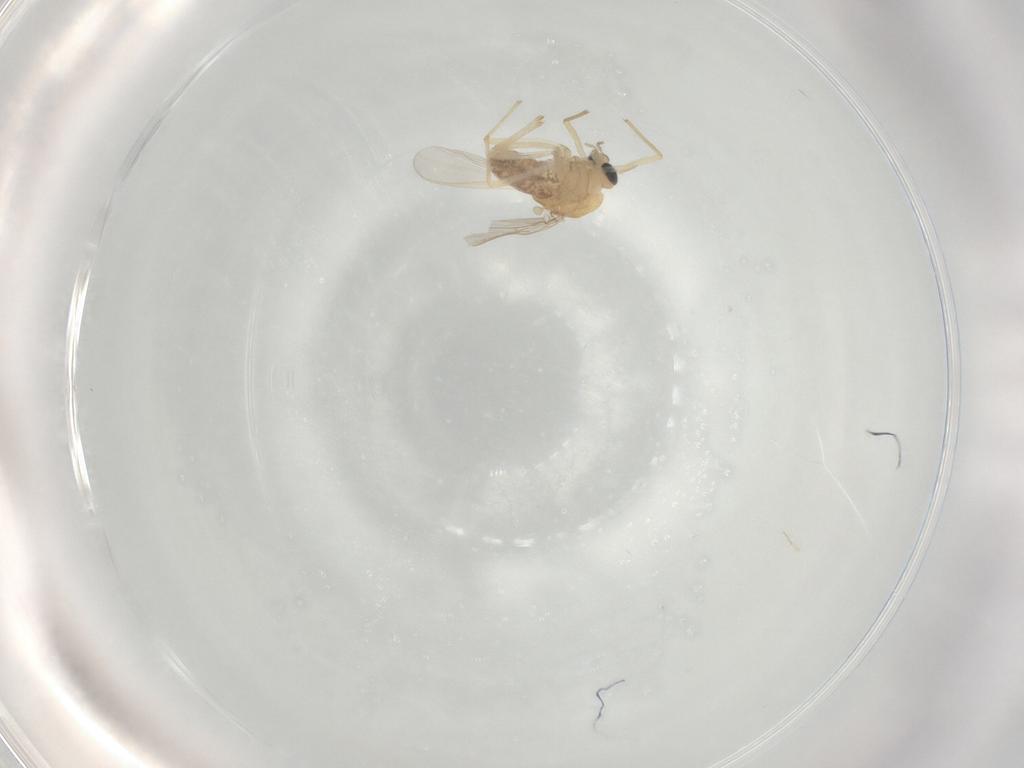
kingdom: Animalia
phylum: Arthropoda
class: Insecta
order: Diptera
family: Chironomidae
